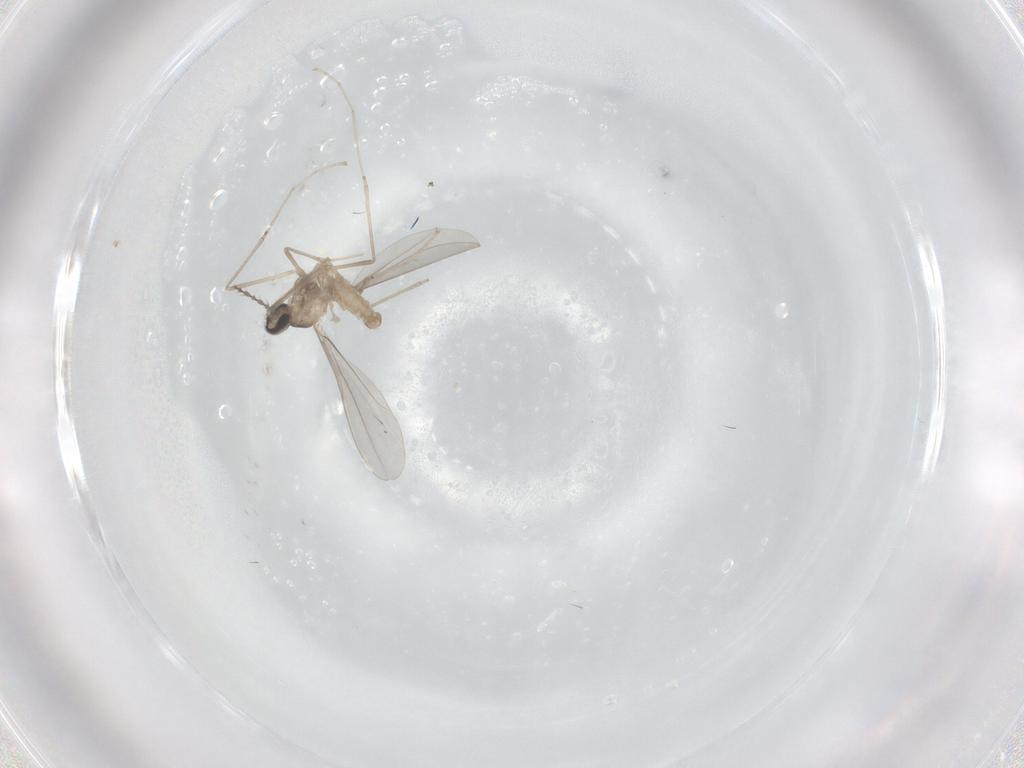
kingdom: Animalia
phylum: Arthropoda
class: Insecta
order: Diptera
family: Cecidomyiidae
